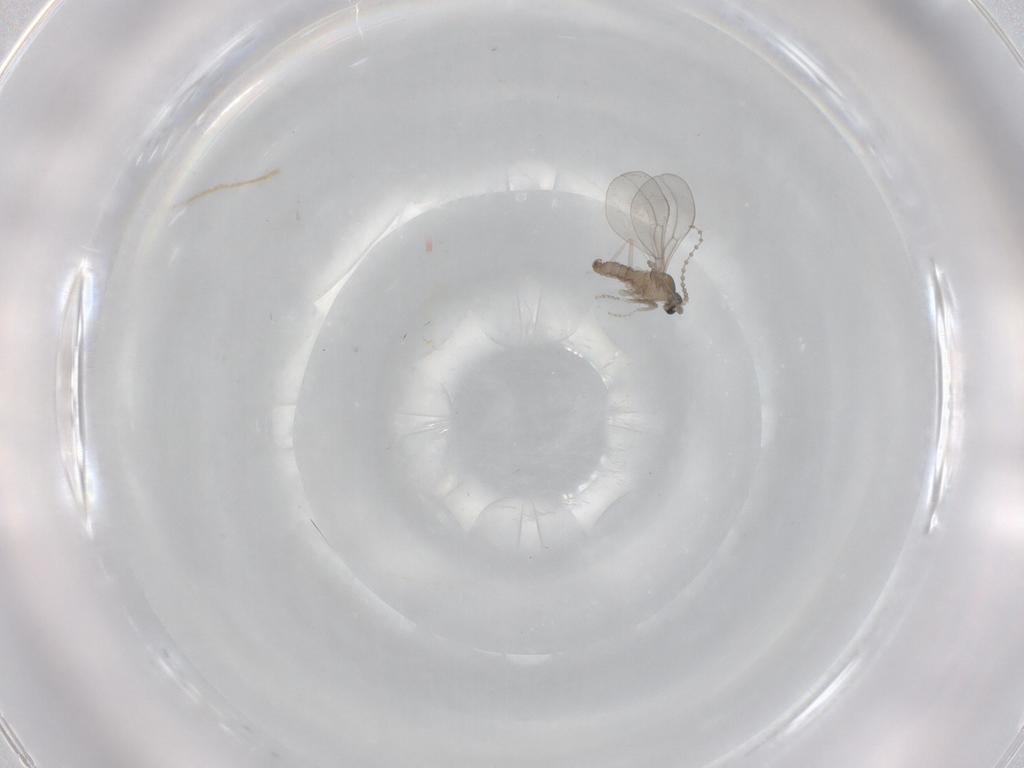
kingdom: Animalia
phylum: Arthropoda
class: Insecta
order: Diptera
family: Cecidomyiidae
